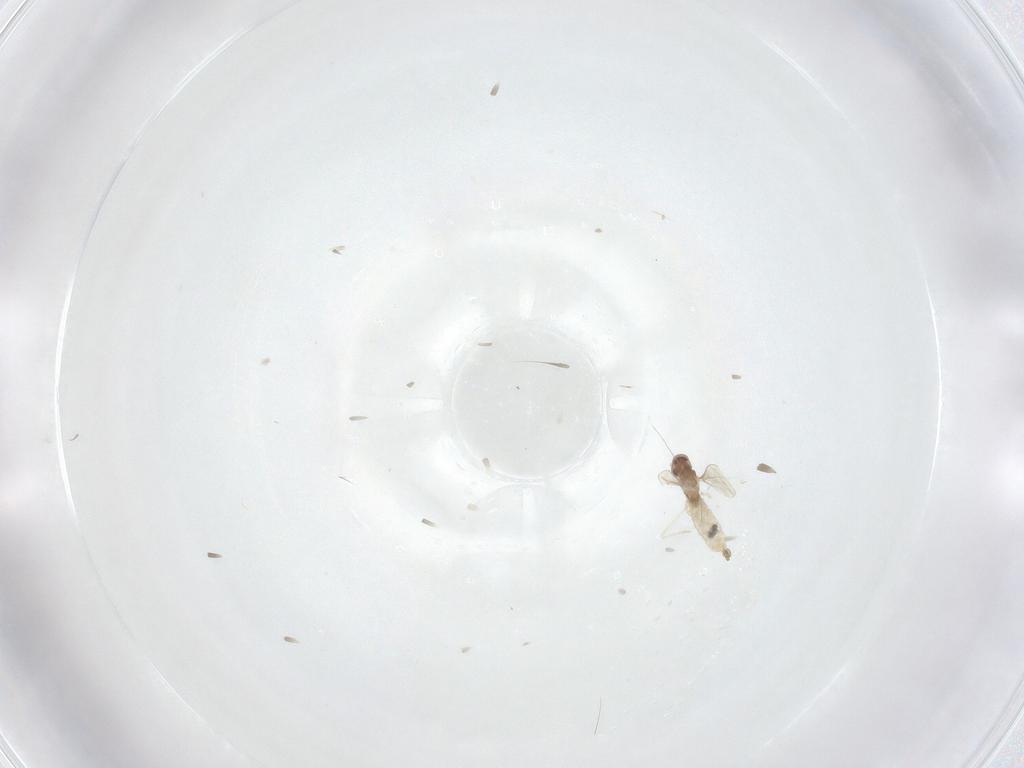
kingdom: Animalia
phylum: Arthropoda
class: Insecta
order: Diptera
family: Cecidomyiidae
